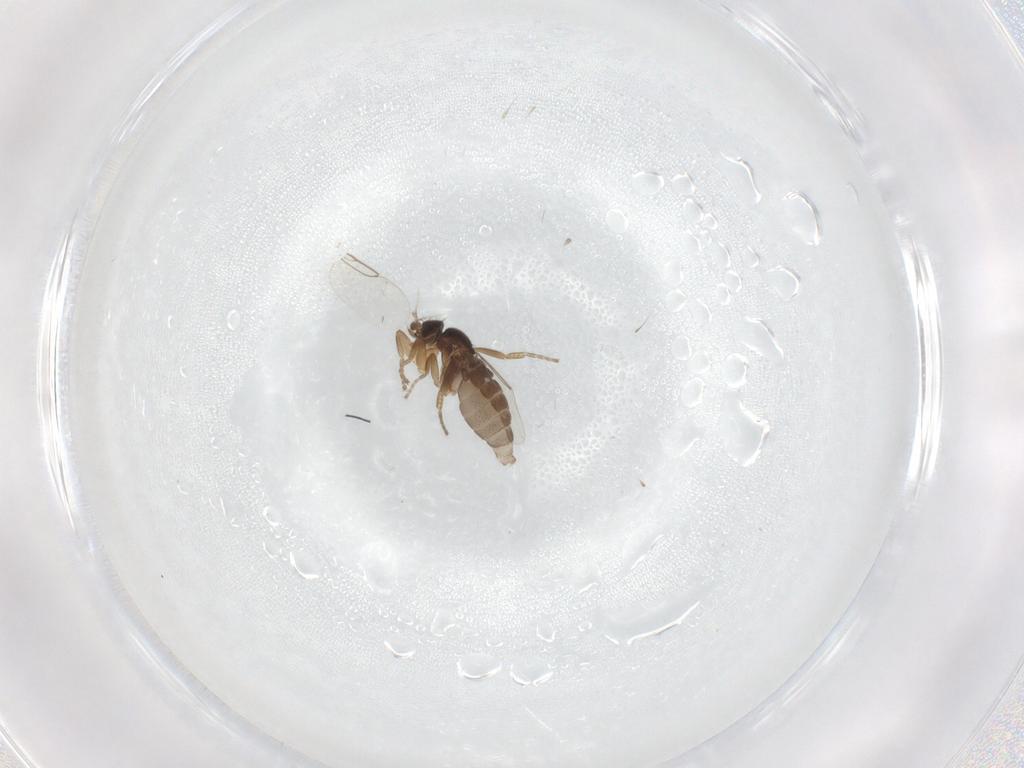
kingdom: Animalia
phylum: Arthropoda
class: Insecta
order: Diptera
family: Phoridae
